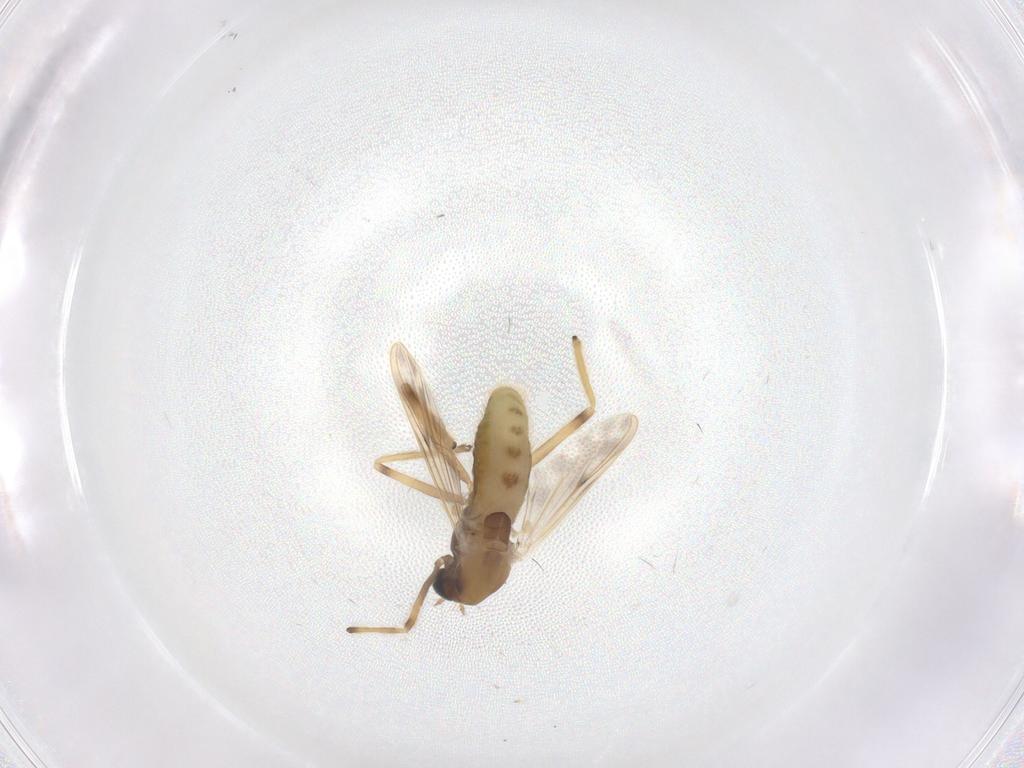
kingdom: Animalia
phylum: Arthropoda
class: Insecta
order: Diptera
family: Chironomidae
